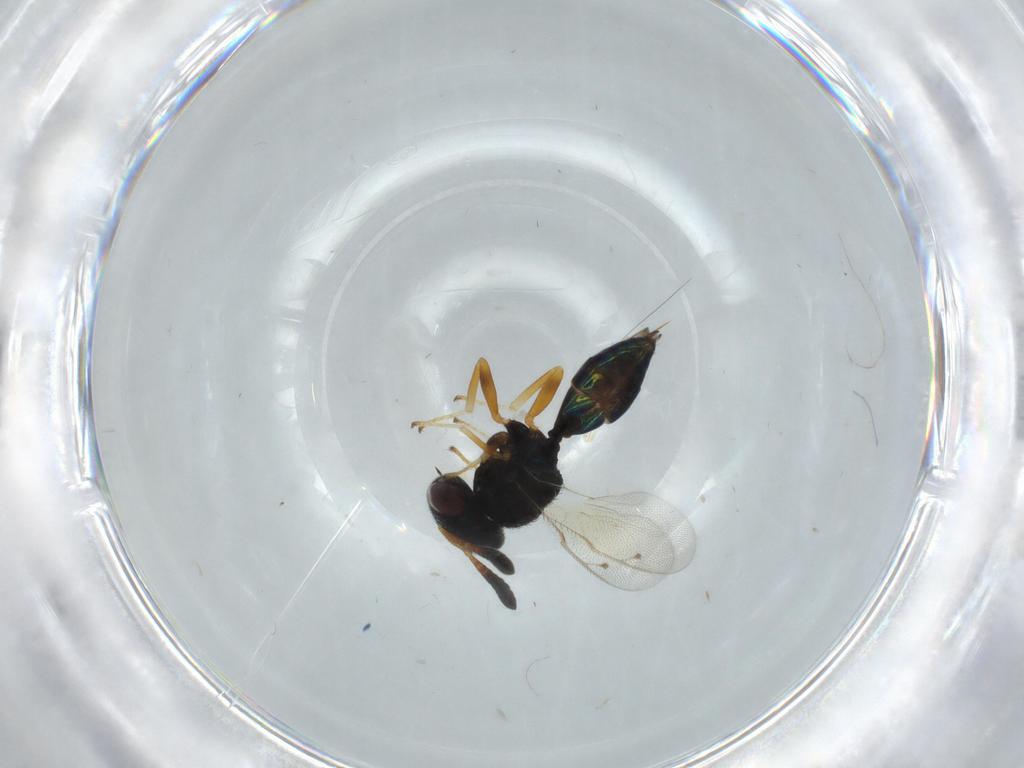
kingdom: Animalia
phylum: Arthropoda
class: Insecta
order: Hymenoptera
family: Agaonidae
